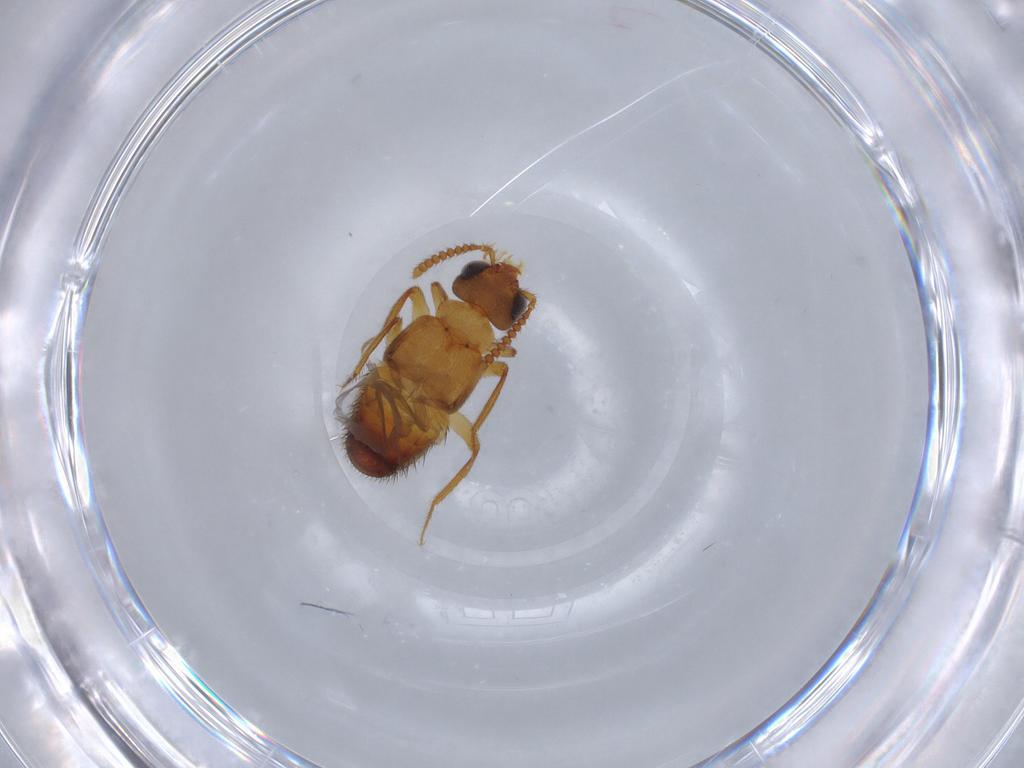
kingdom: Animalia
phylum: Arthropoda
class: Insecta
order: Coleoptera
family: Staphylinidae
